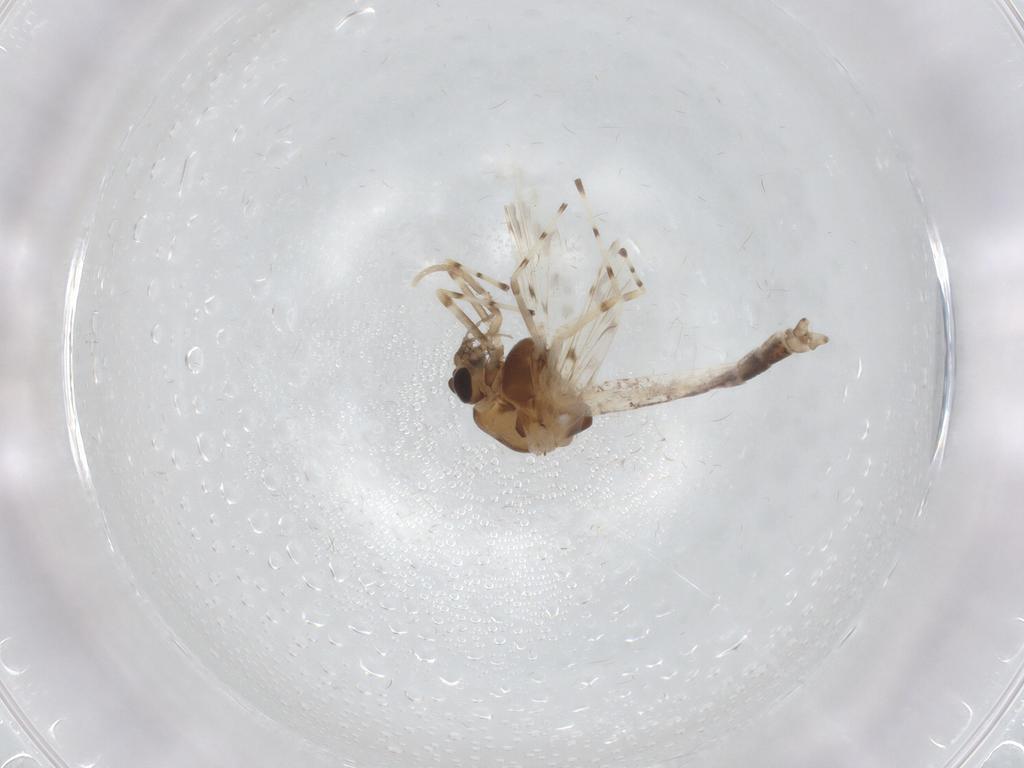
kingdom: Animalia
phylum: Arthropoda
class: Insecta
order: Diptera
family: Chironomidae
